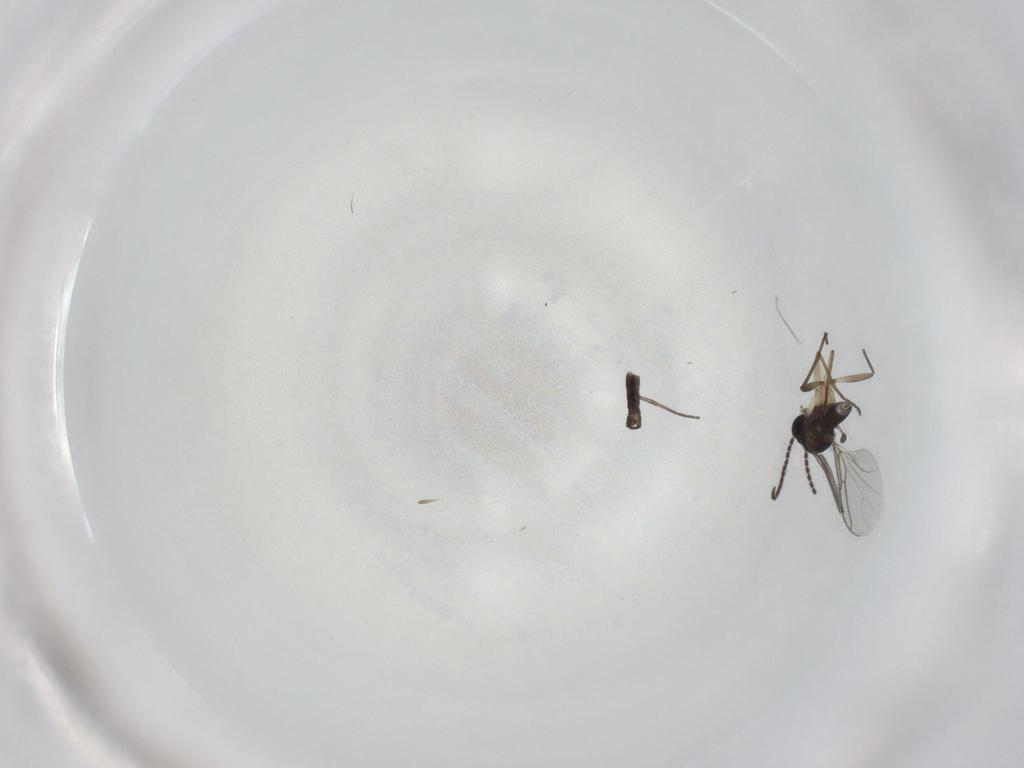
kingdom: Animalia
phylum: Arthropoda
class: Insecta
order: Diptera
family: Sciaridae
